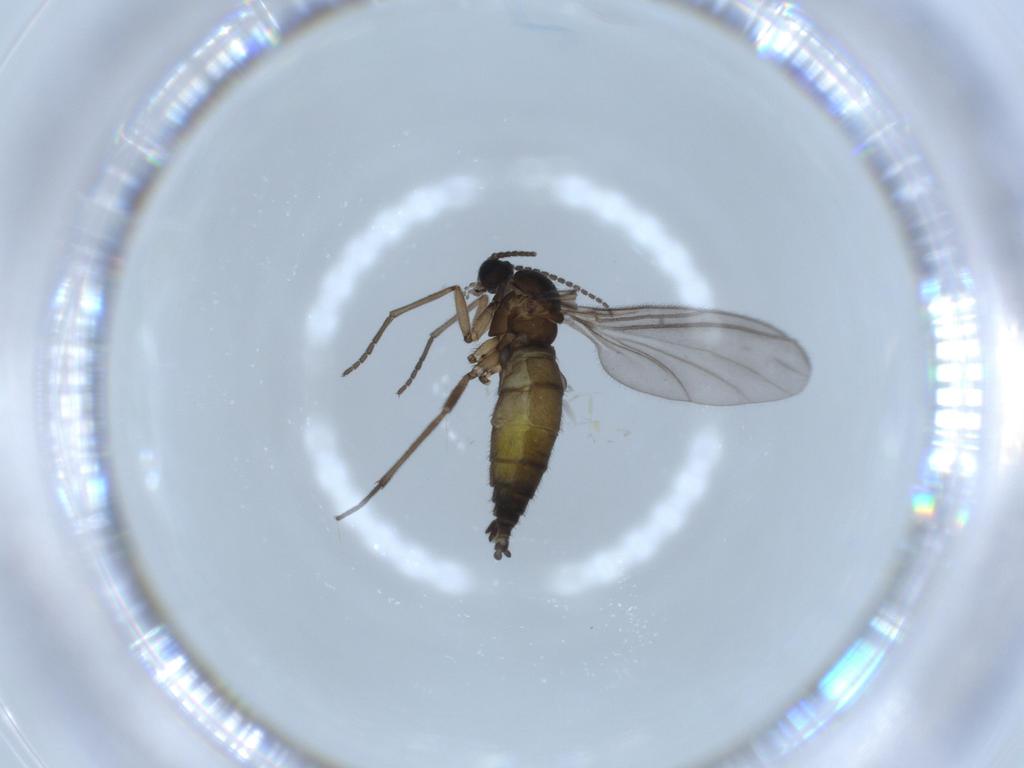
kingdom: Animalia
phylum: Arthropoda
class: Insecta
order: Diptera
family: Sciaridae
